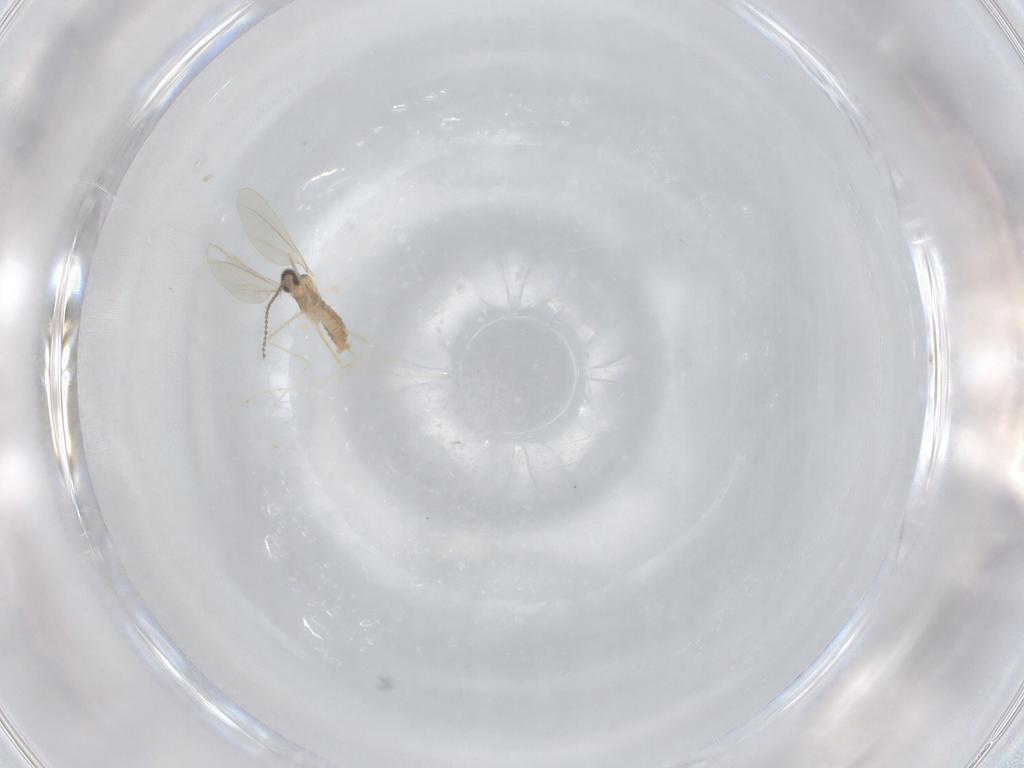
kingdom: Animalia
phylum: Arthropoda
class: Insecta
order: Diptera
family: Cecidomyiidae
